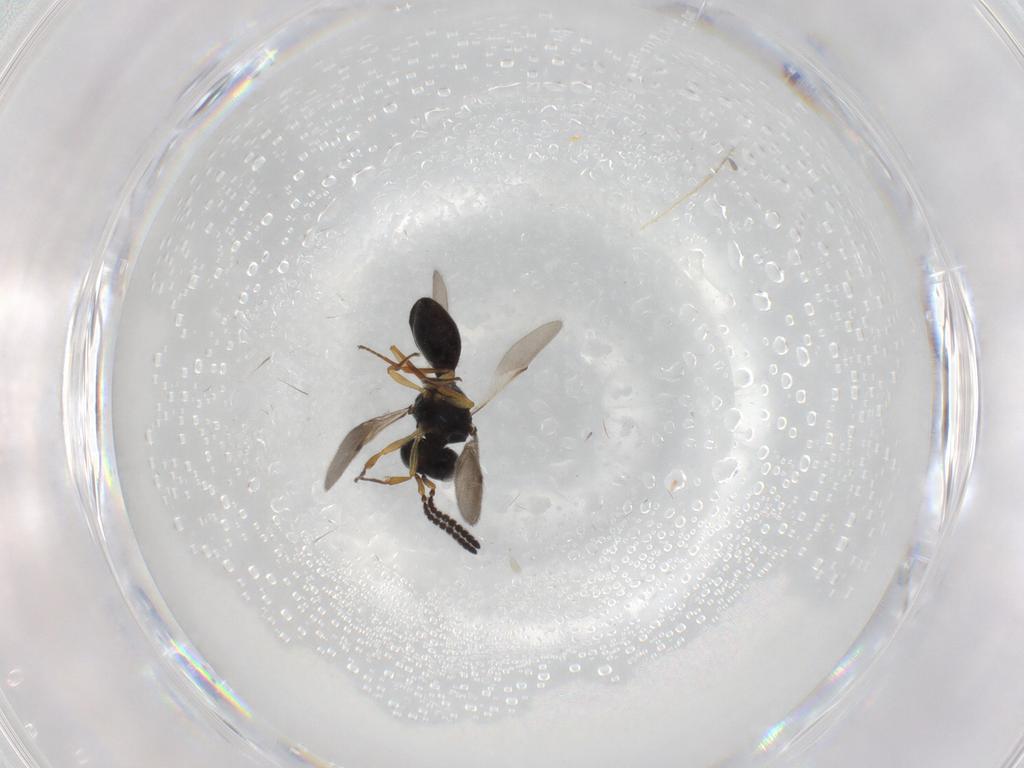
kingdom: Animalia
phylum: Arthropoda
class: Insecta
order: Hymenoptera
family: Scelionidae
